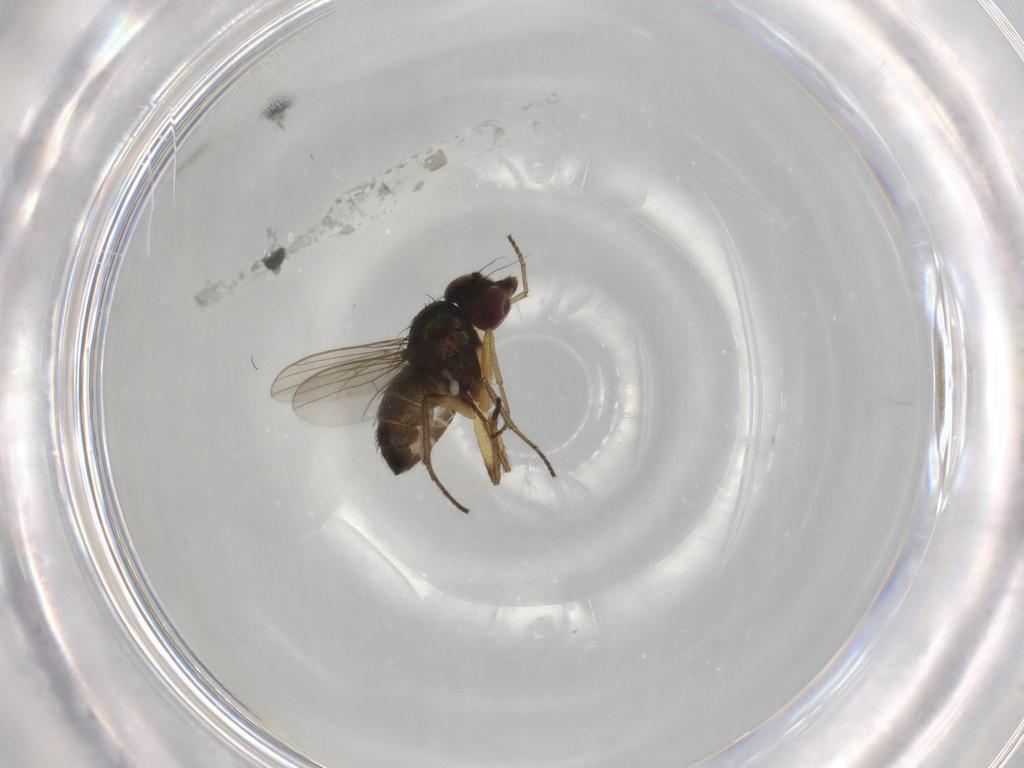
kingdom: Animalia
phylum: Arthropoda
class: Insecta
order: Diptera
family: Dolichopodidae
